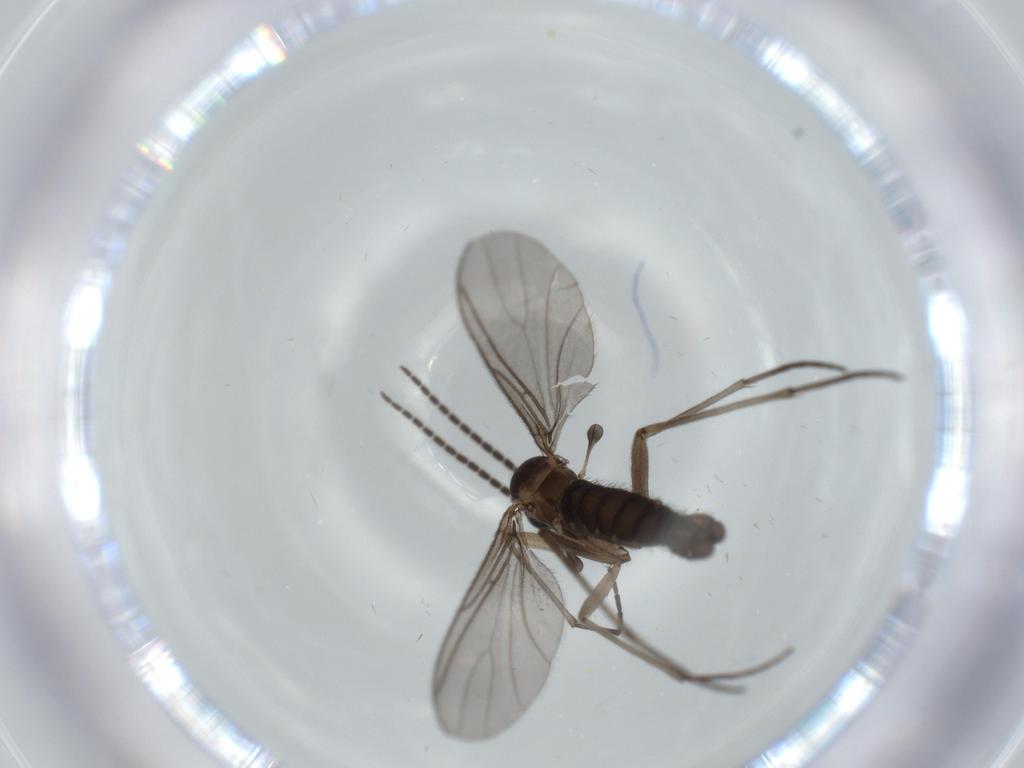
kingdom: Animalia
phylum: Arthropoda
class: Insecta
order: Diptera
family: Sciaridae
